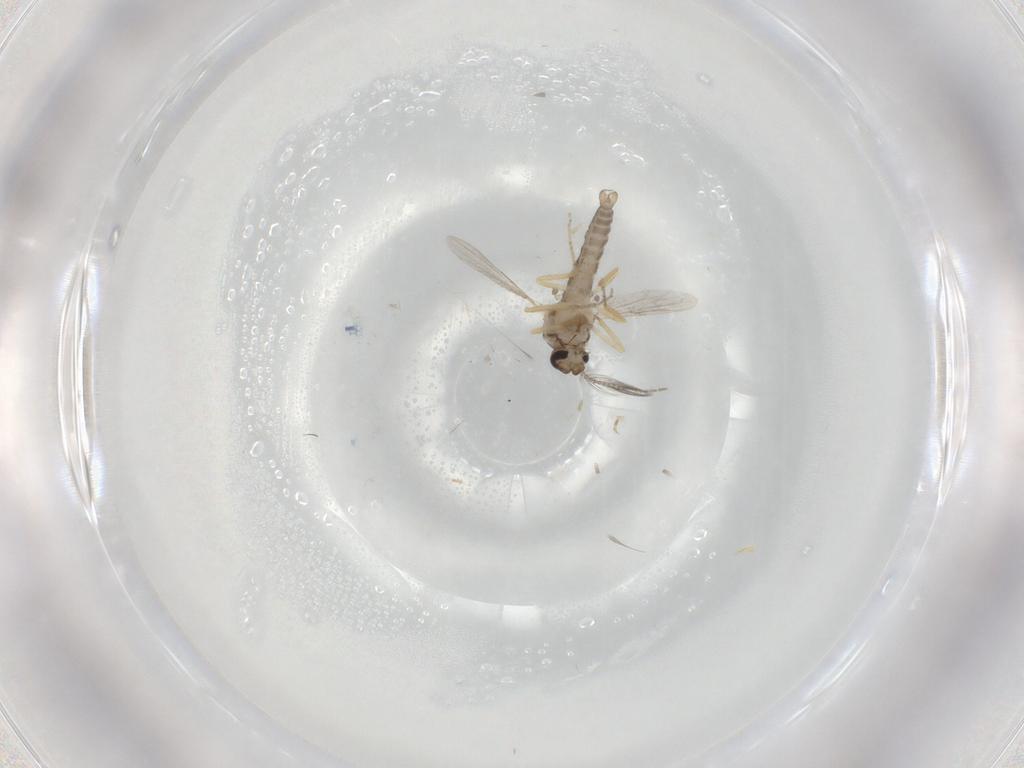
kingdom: Animalia
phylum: Arthropoda
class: Insecta
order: Diptera
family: Ceratopogonidae
